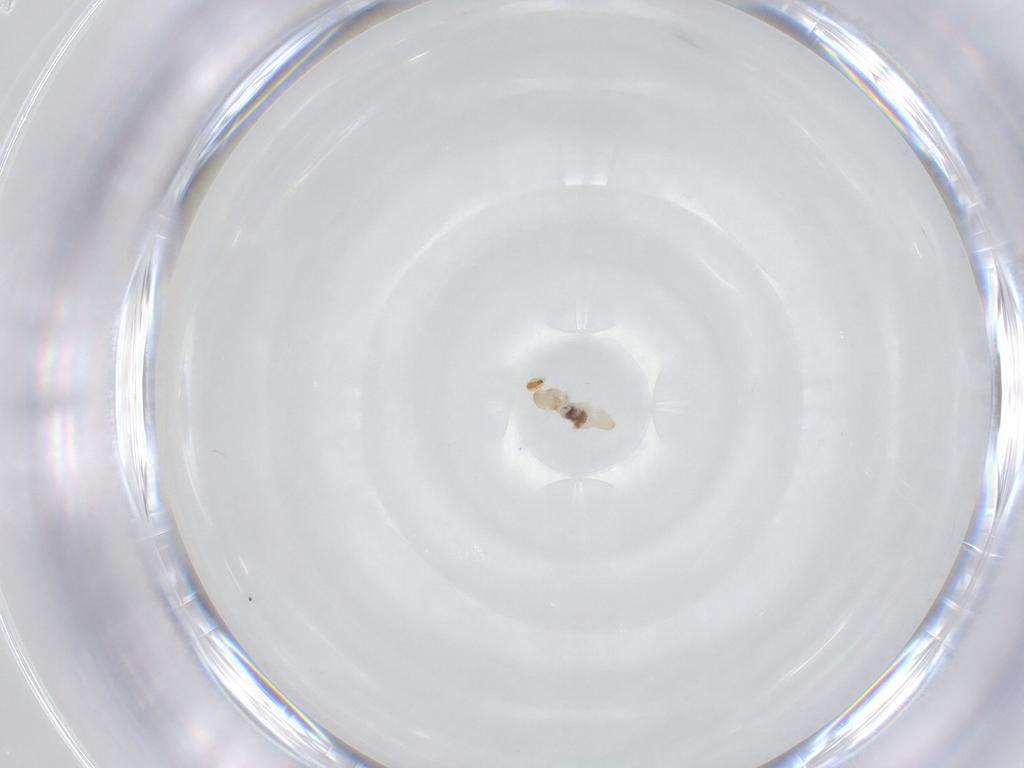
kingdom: Animalia
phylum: Arthropoda
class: Insecta
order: Diptera
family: Cecidomyiidae
